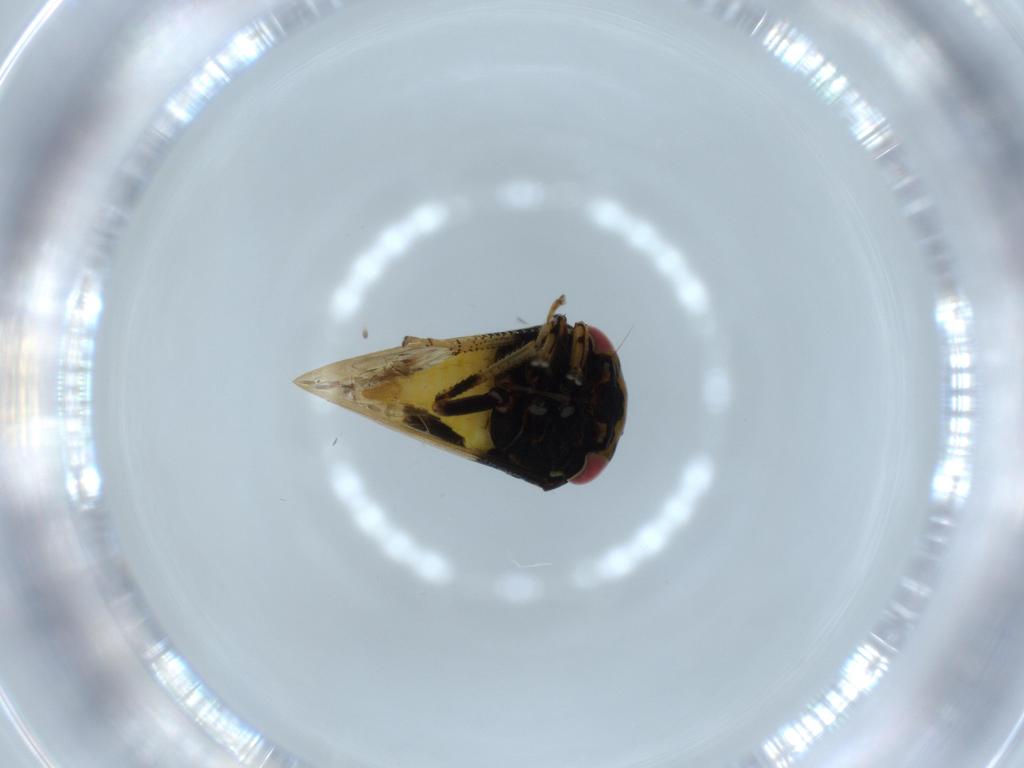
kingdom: Animalia
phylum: Arthropoda
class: Insecta
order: Hemiptera
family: Membracidae
